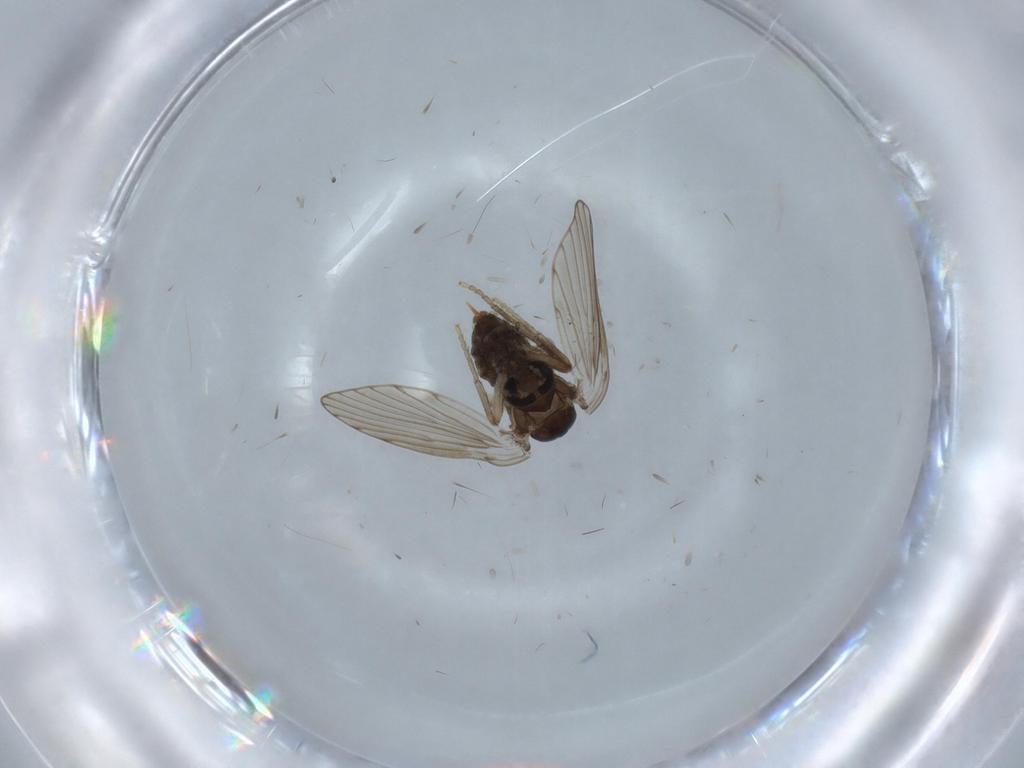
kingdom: Animalia
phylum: Arthropoda
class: Insecta
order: Diptera
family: Psychodidae
